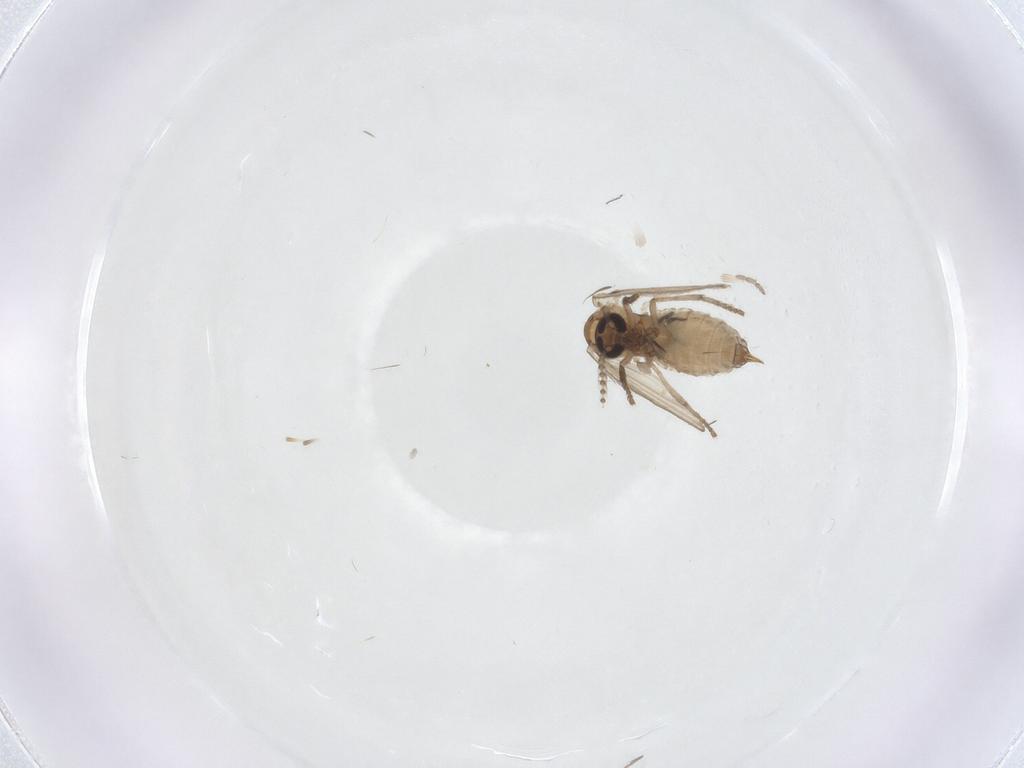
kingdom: Animalia
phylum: Arthropoda
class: Insecta
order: Diptera
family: Psychodidae
